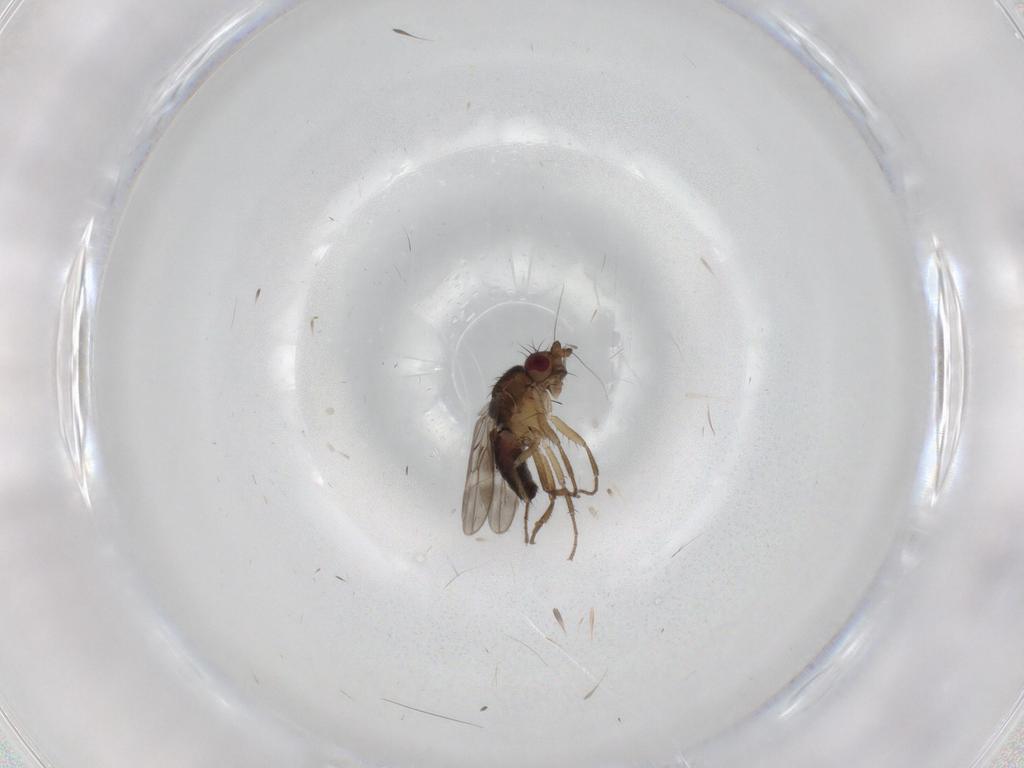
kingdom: Animalia
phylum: Arthropoda
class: Insecta
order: Diptera
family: Sphaeroceridae
